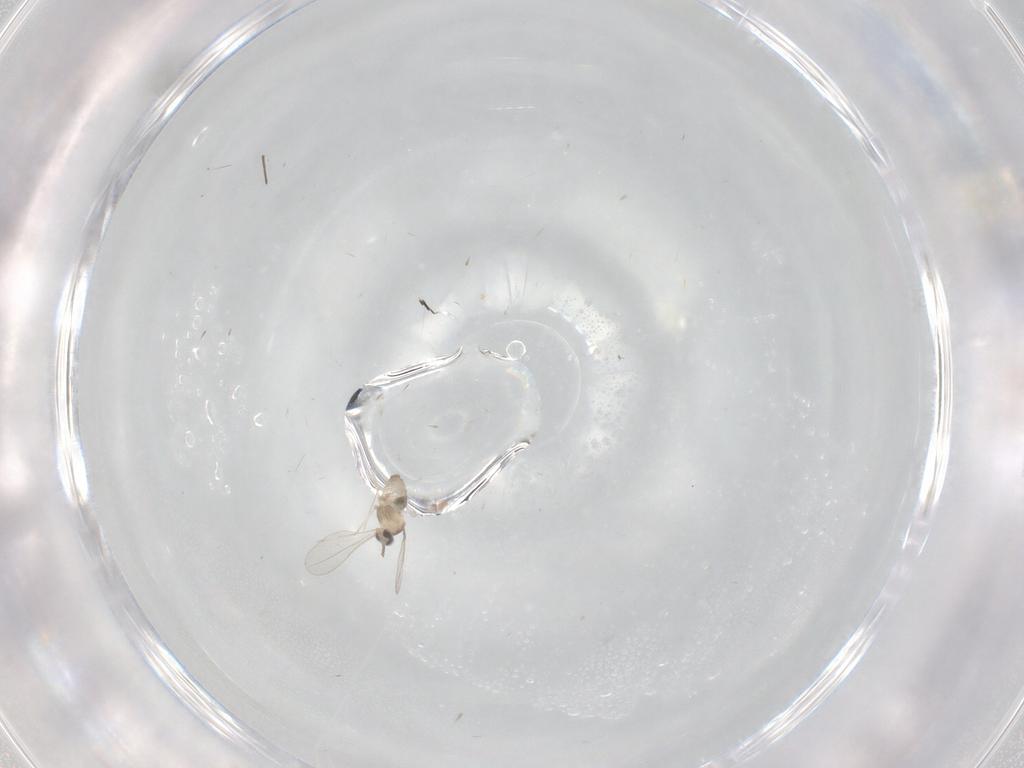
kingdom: Animalia
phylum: Arthropoda
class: Insecta
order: Diptera
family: Cecidomyiidae
